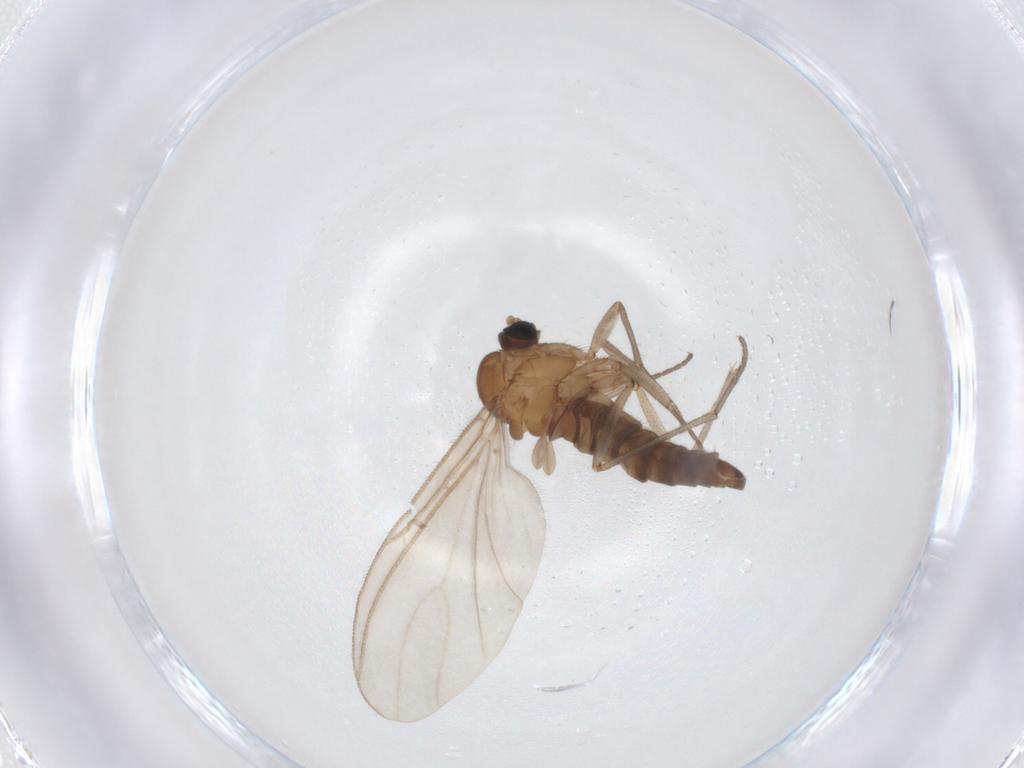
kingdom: Animalia
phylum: Arthropoda
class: Insecta
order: Diptera
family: Sciaridae
